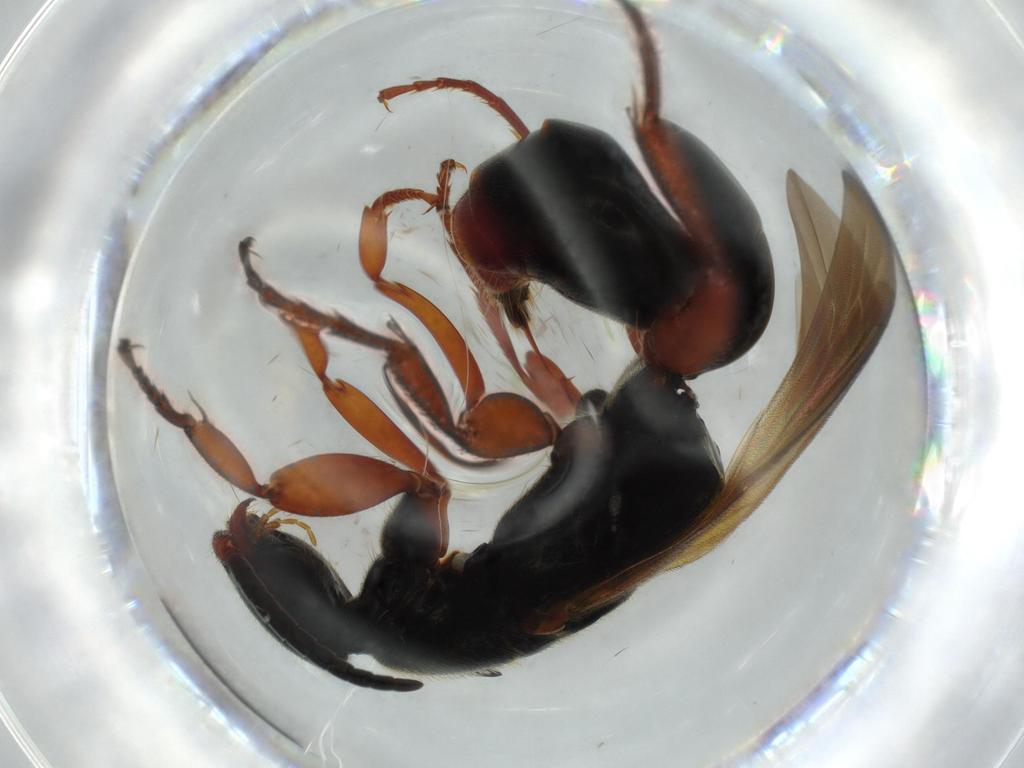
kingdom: Animalia
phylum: Arthropoda
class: Insecta
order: Hymenoptera
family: Bethylidae
